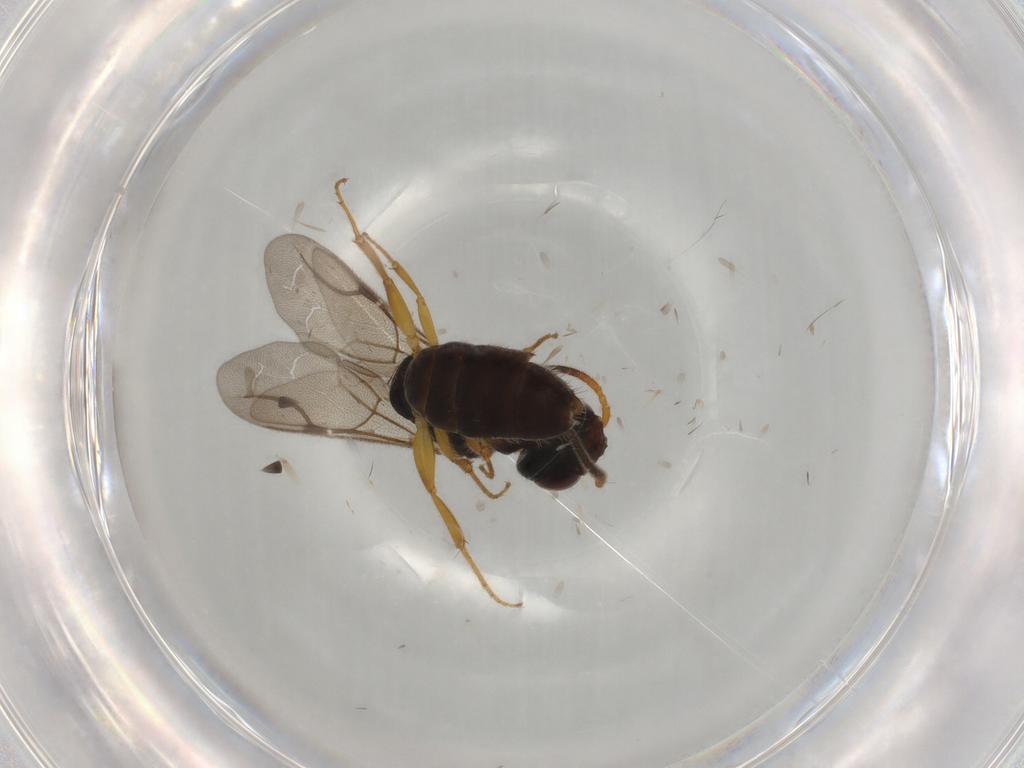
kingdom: Animalia
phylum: Arthropoda
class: Insecta
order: Hymenoptera
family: Bethylidae
